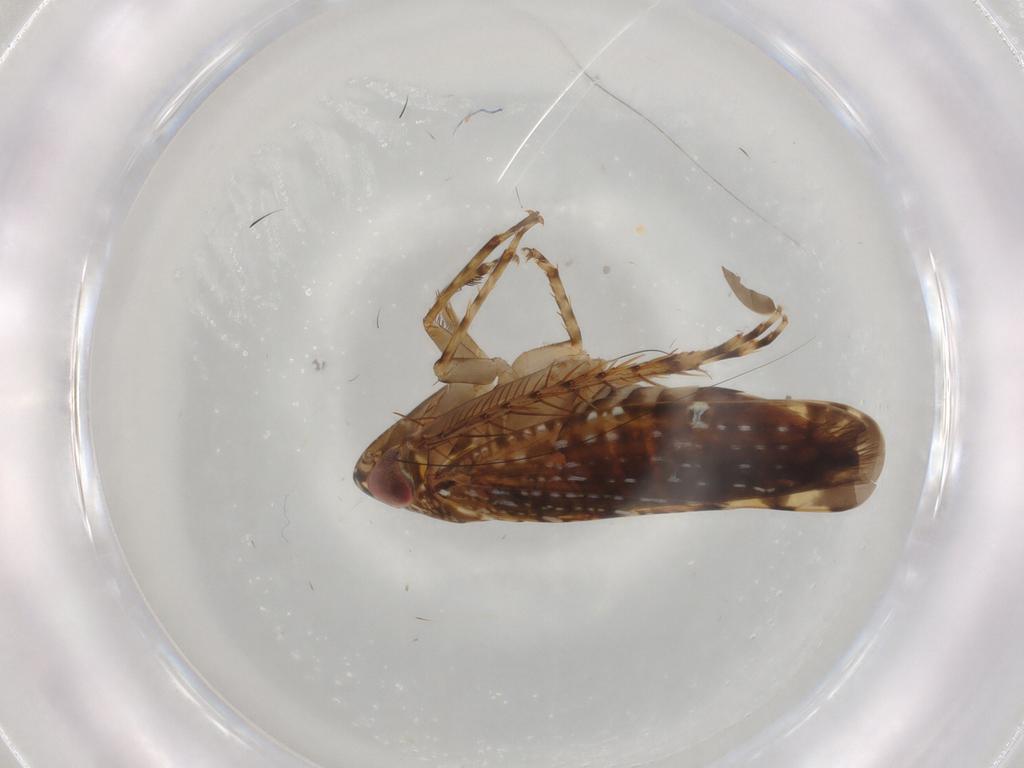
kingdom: Animalia
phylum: Arthropoda
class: Insecta
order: Hemiptera
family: Cicadellidae
